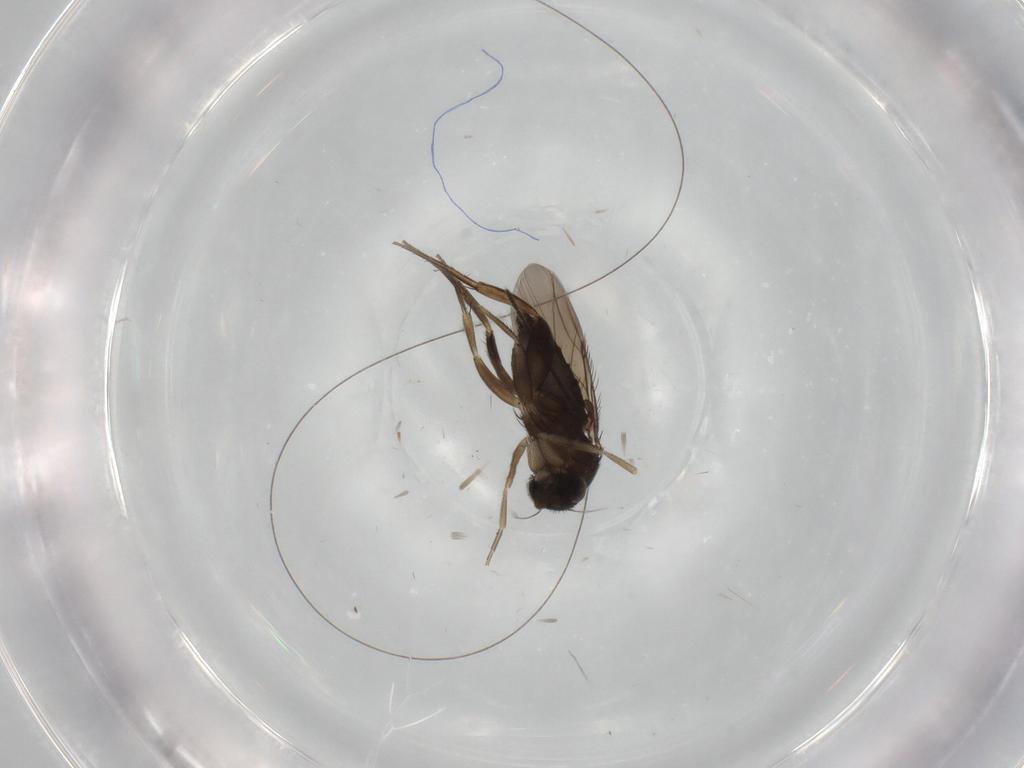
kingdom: Animalia
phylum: Arthropoda
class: Insecta
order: Diptera
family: Phoridae
